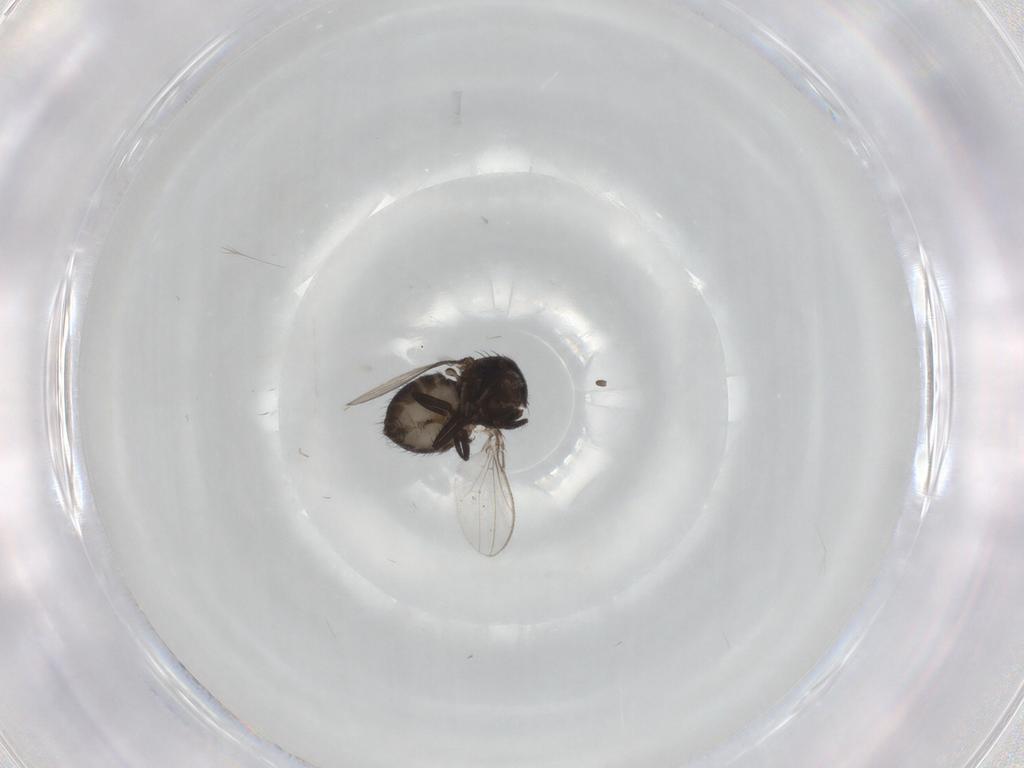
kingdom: Animalia
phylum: Arthropoda
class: Insecta
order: Diptera
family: Ephydridae
